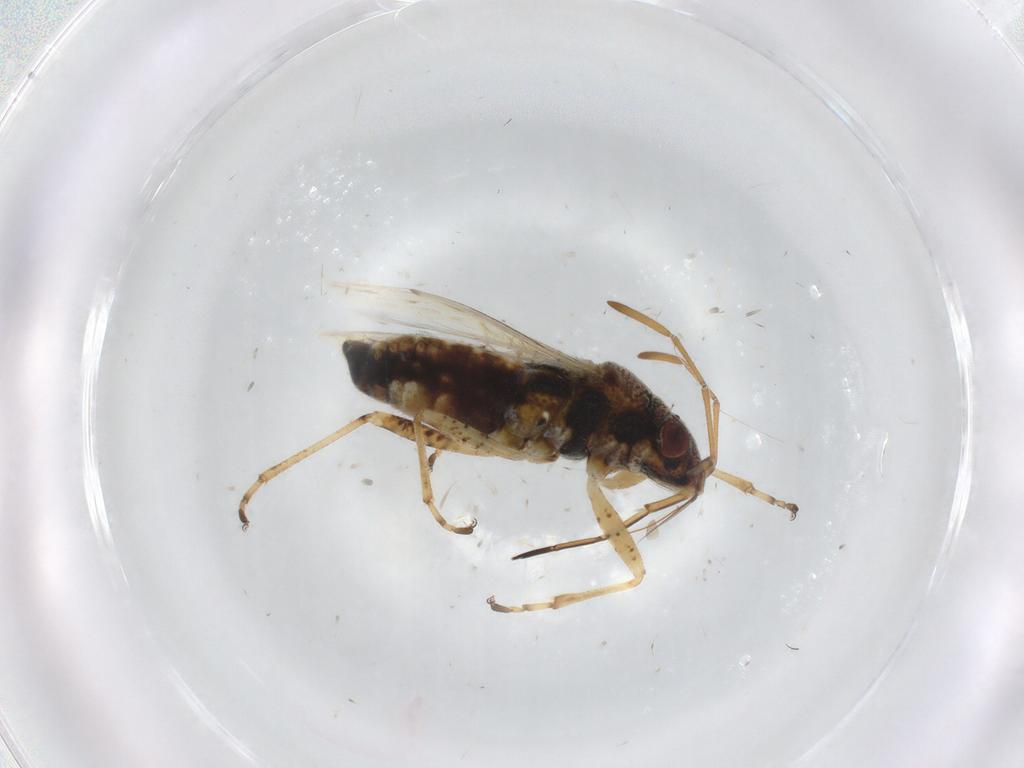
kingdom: Animalia
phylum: Arthropoda
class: Insecta
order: Hemiptera
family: Lygaeidae
